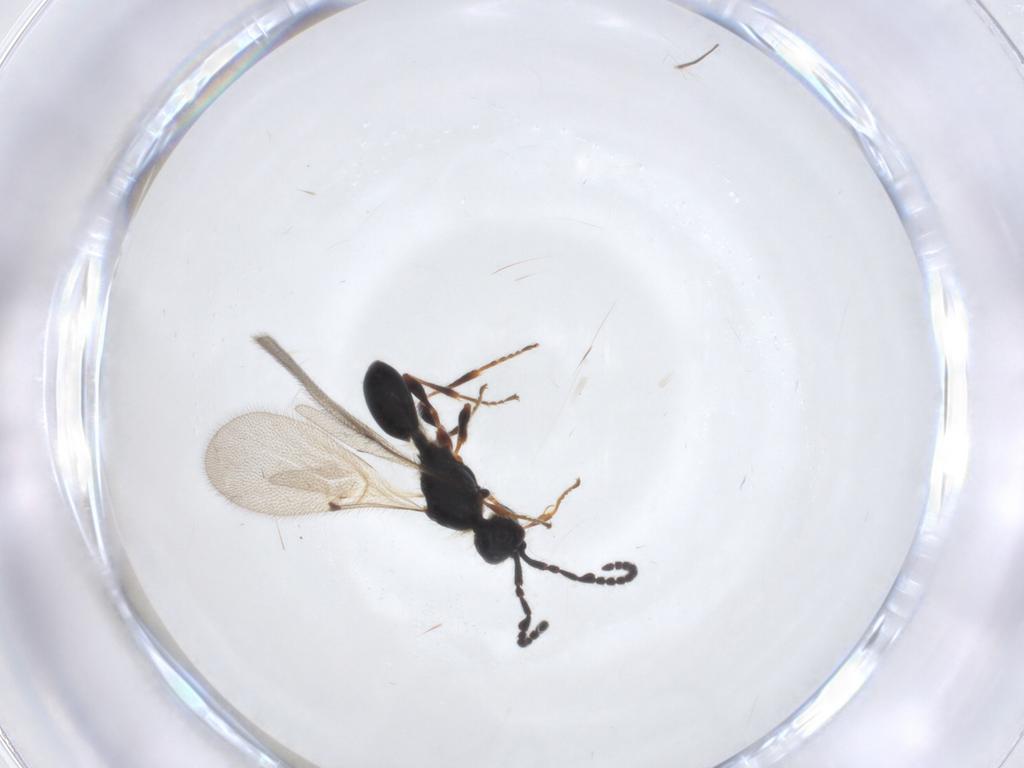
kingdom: Animalia
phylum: Arthropoda
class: Insecta
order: Hymenoptera
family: Diapriidae
